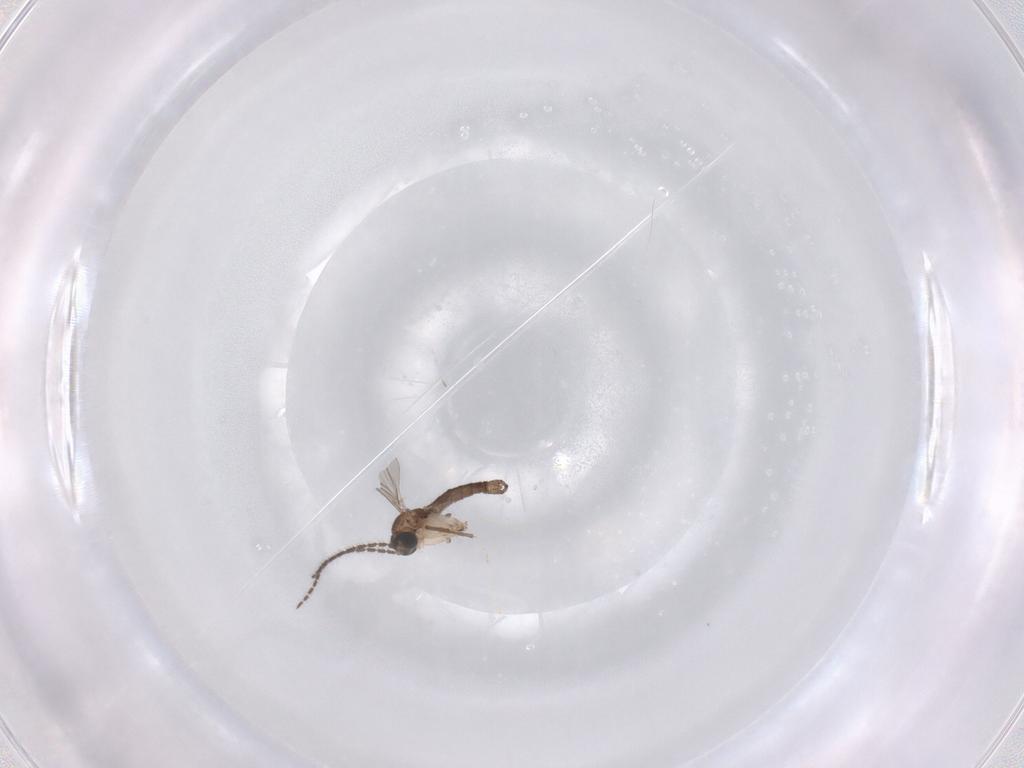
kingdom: Animalia
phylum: Arthropoda
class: Insecta
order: Diptera
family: Sciaridae
